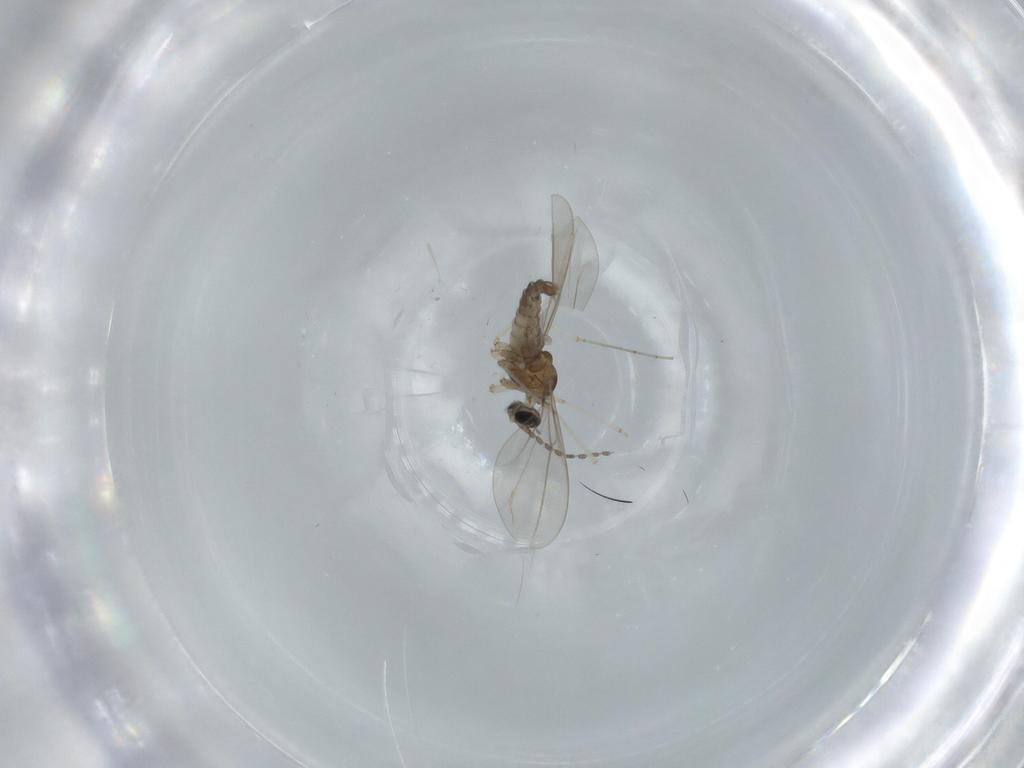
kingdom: Animalia
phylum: Arthropoda
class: Insecta
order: Diptera
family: Cecidomyiidae
